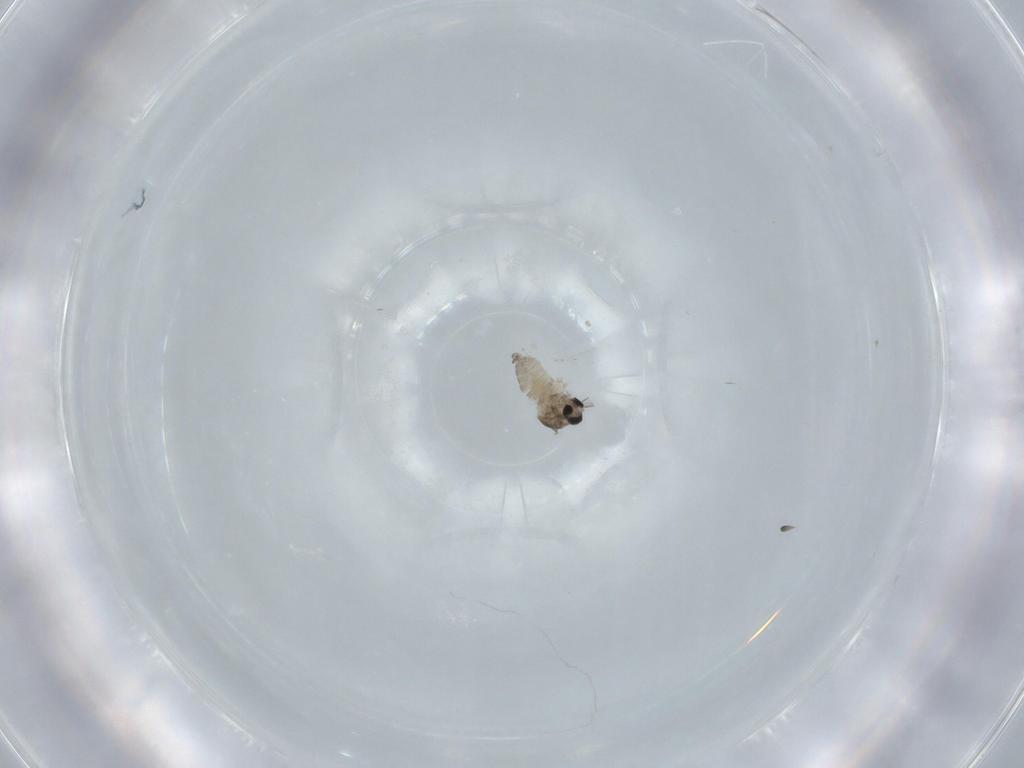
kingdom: Animalia
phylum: Arthropoda
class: Insecta
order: Diptera
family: Cecidomyiidae
